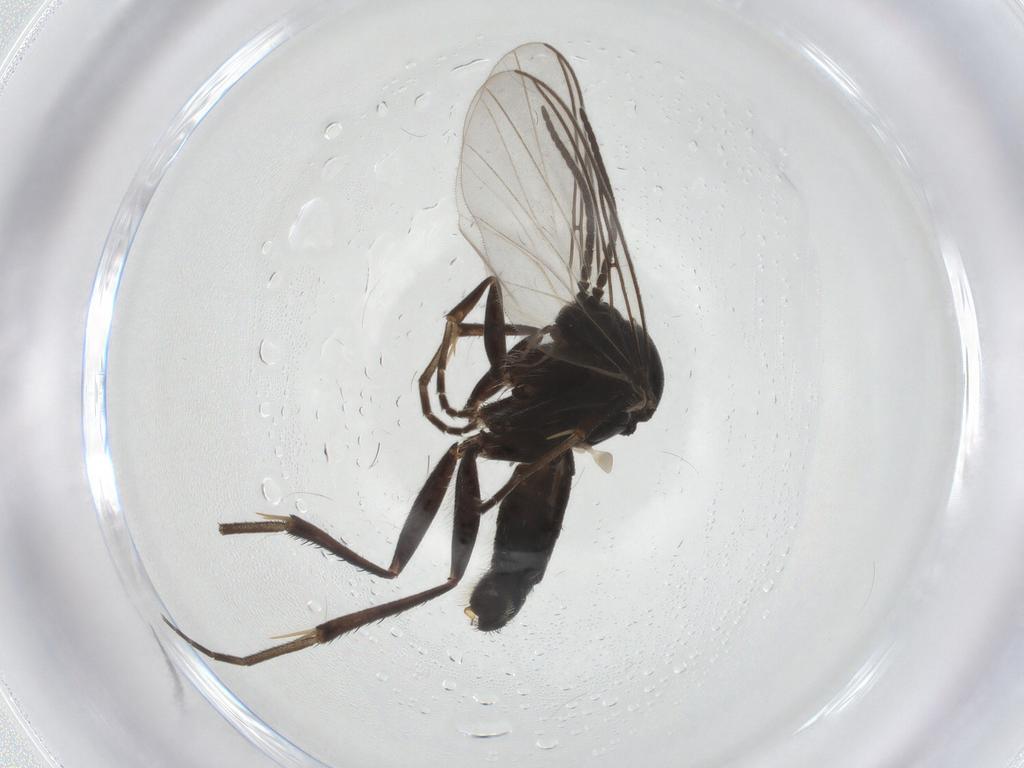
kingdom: Animalia
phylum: Arthropoda
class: Insecta
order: Diptera
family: Mycetophilidae
